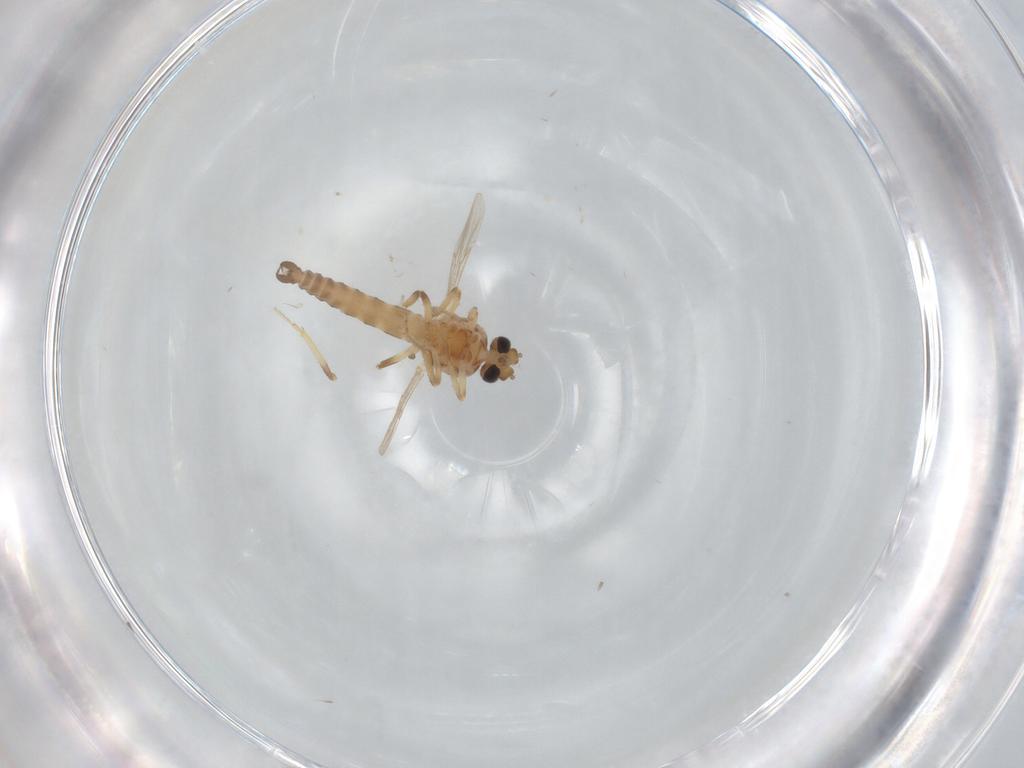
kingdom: Animalia
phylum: Arthropoda
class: Insecta
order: Diptera
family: Ceratopogonidae
